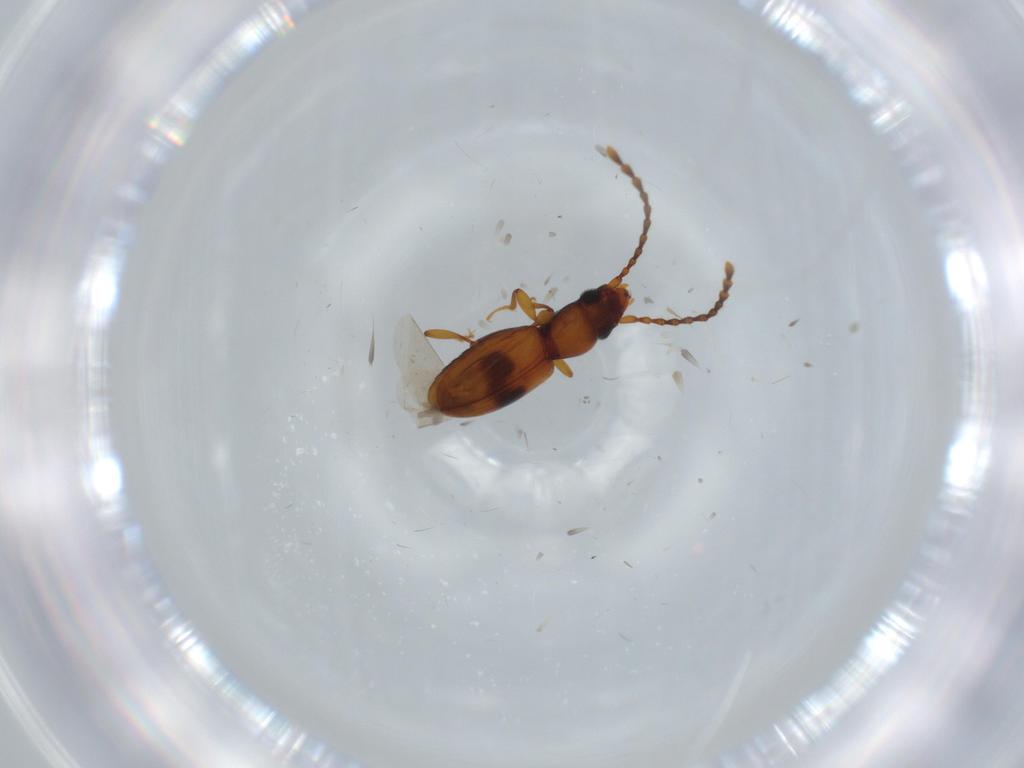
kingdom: Animalia
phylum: Arthropoda
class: Insecta
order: Coleoptera
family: Laemophloeidae
